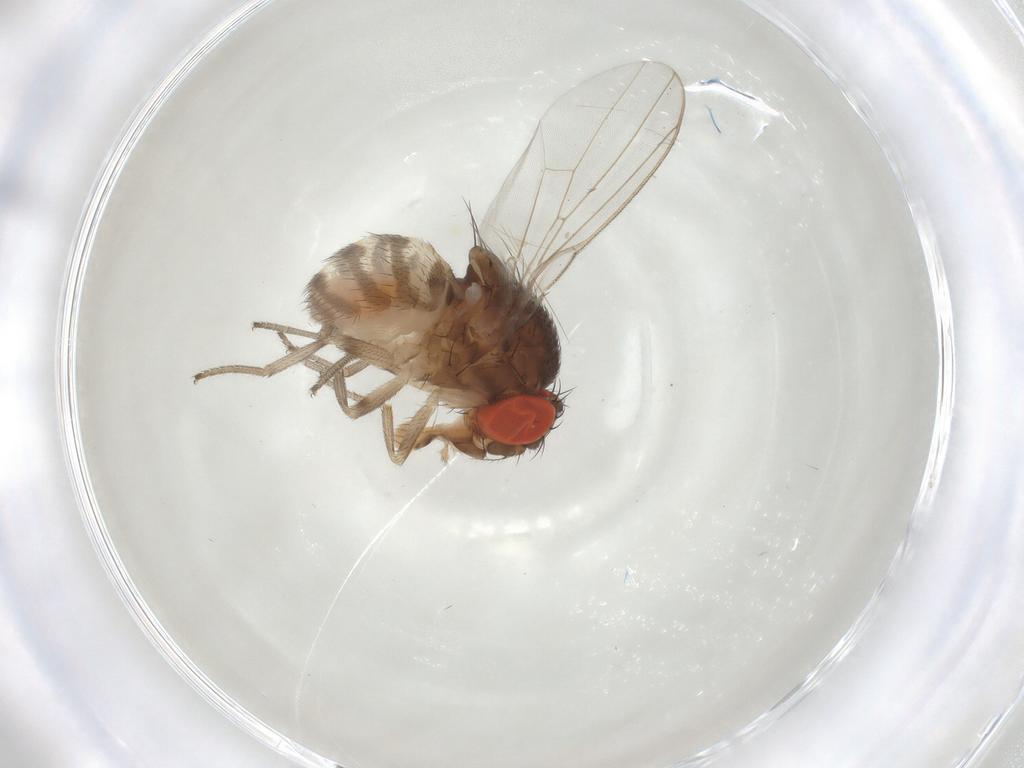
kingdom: Animalia
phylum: Arthropoda
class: Insecta
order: Diptera
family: Drosophilidae
